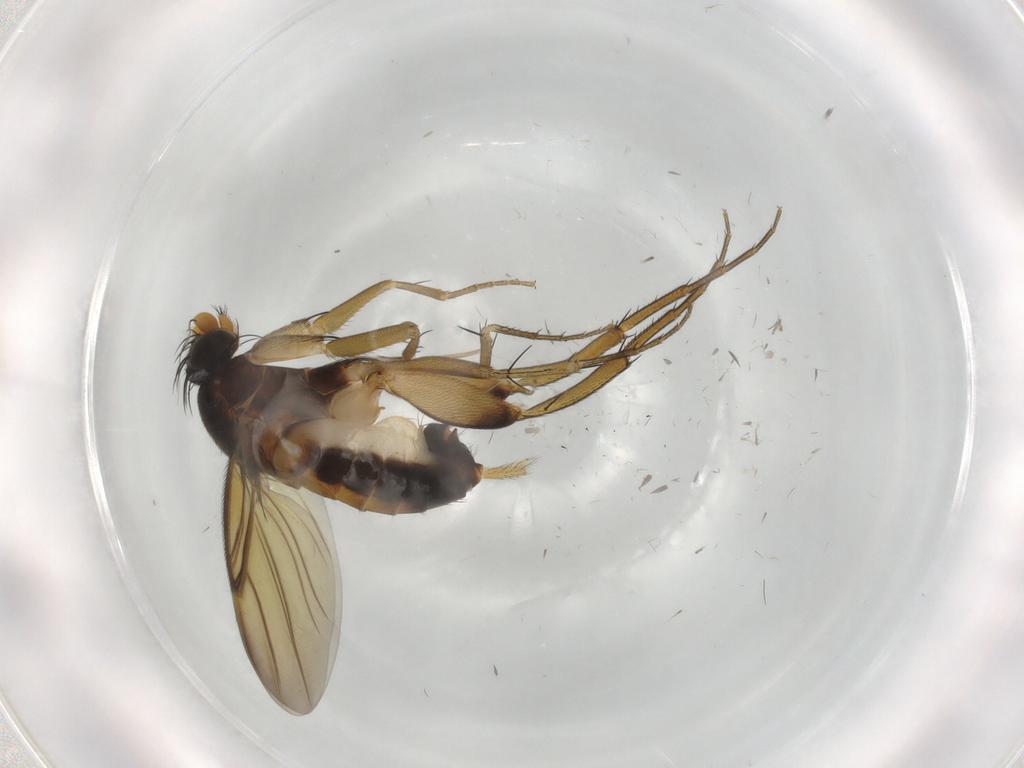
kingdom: Animalia
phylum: Arthropoda
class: Insecta
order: Diptera
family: Phoridae
